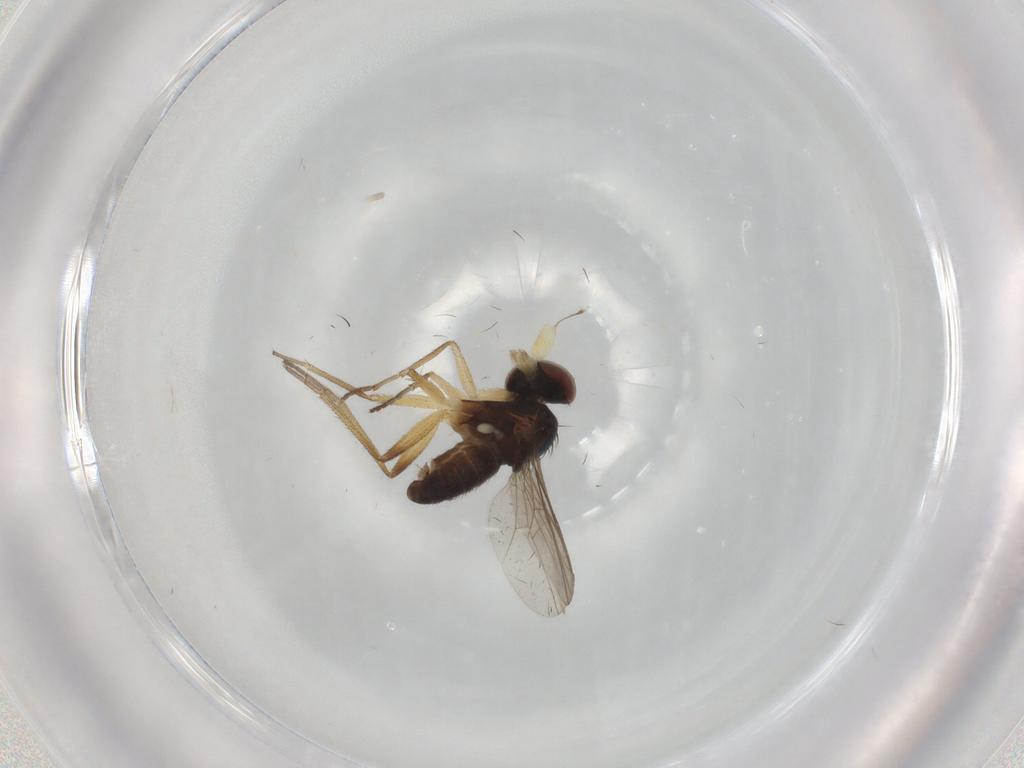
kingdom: Animalia
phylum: Arthropoda
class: Insecta
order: Diptera
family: Dolichopodidae
